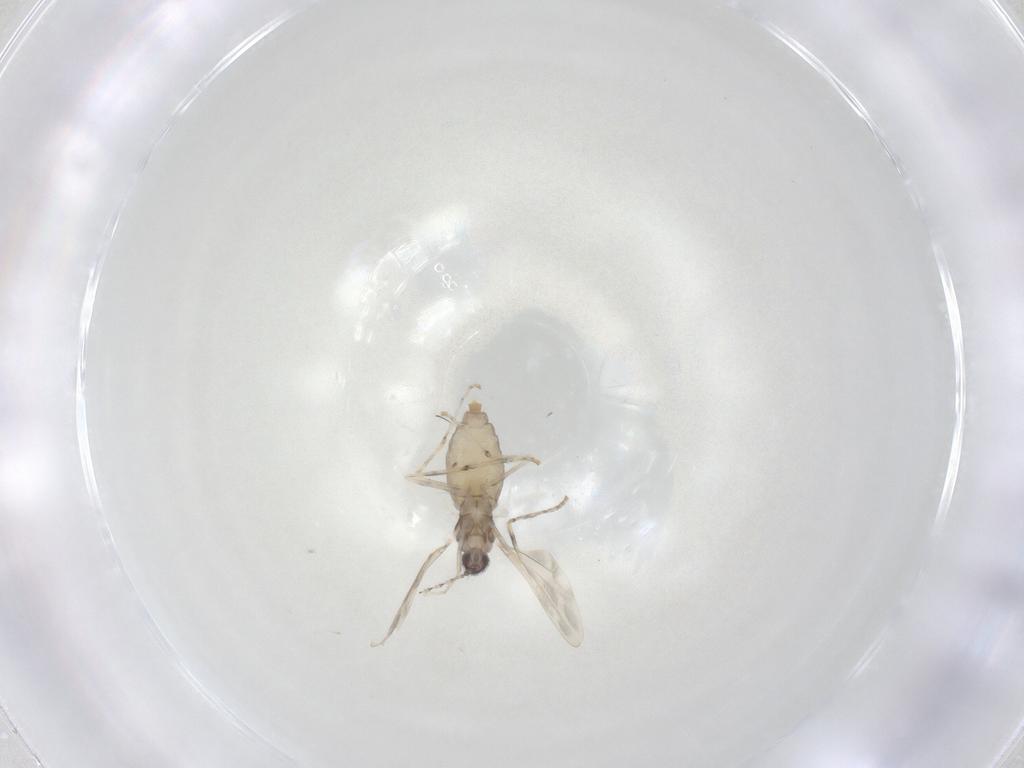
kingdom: Animalia
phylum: Arthropoda
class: Insecta
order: Diptera
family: Cecidomyiidae
